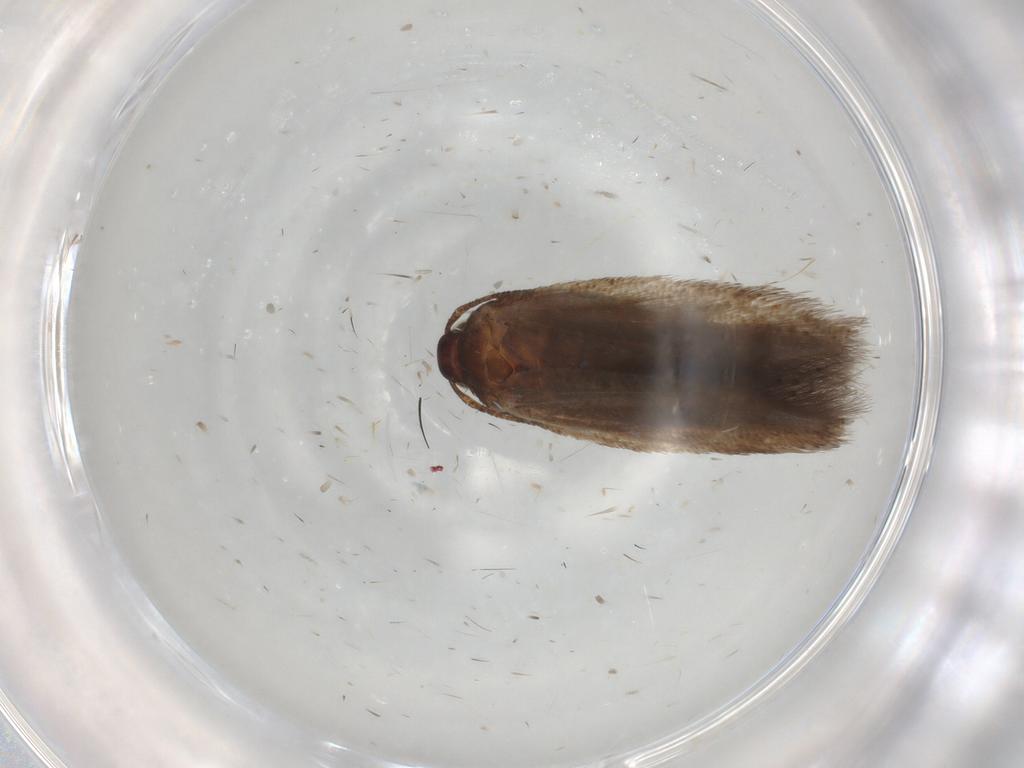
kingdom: Animalia
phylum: Arthropoda
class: Insecta
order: Lepidoptera
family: Gelechiidae
